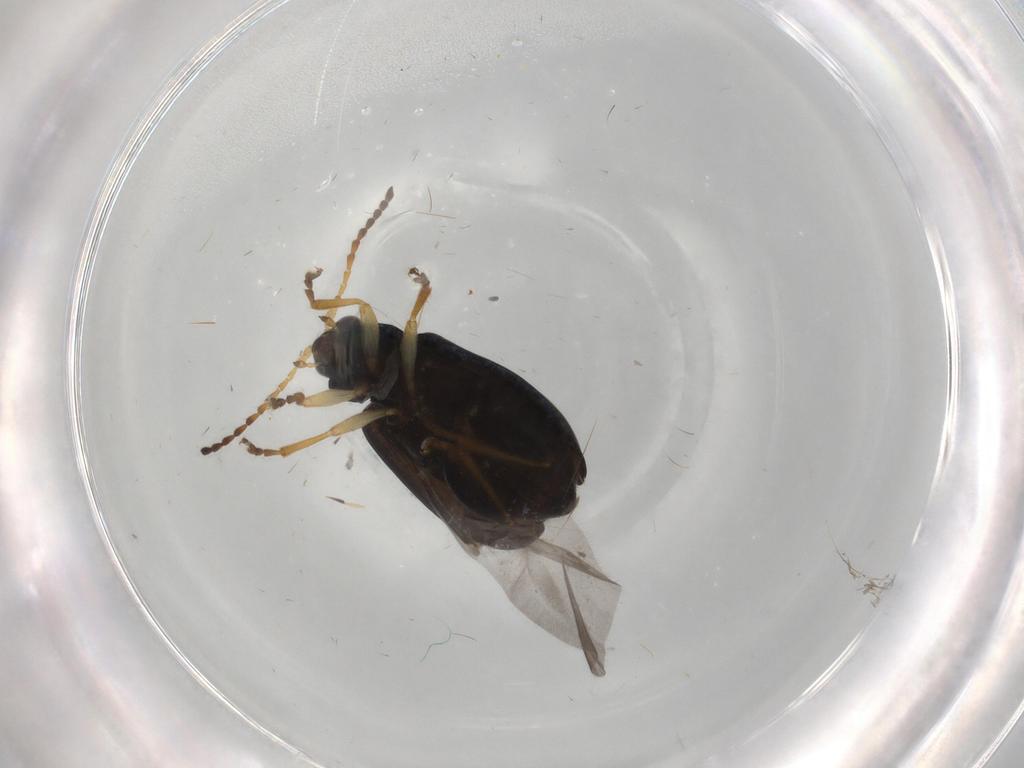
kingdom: Animalia
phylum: Arthropoda
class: Insecta
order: Coleoptera
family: Chrysomelidae
